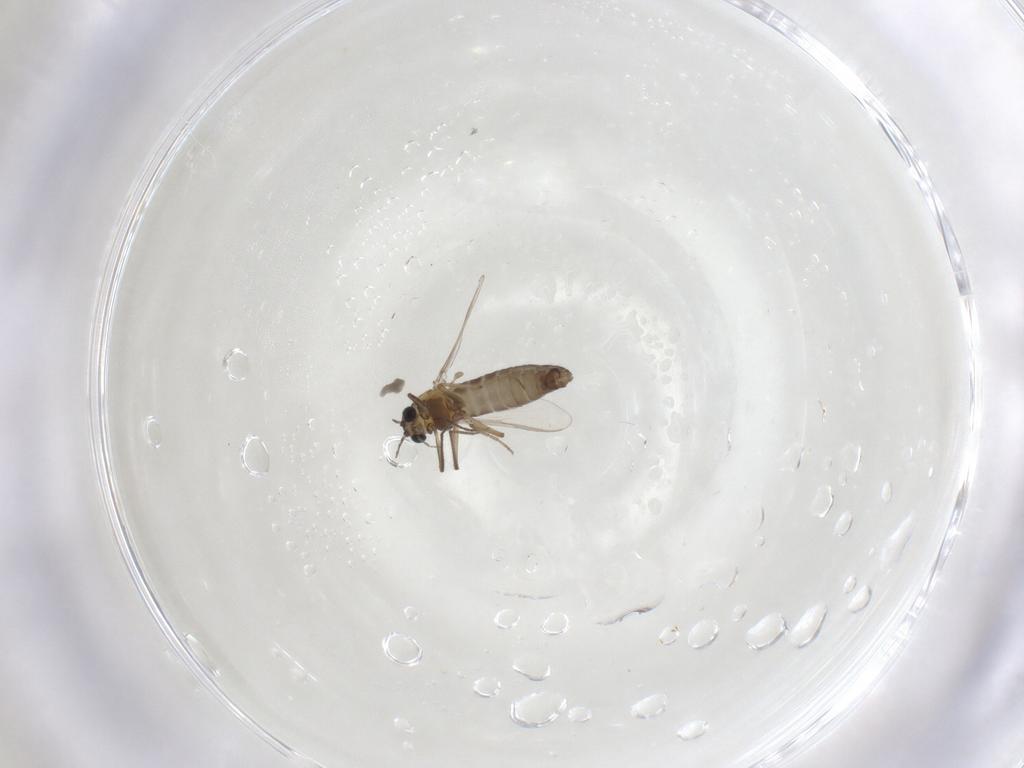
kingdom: Animalia
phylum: Arthropoda
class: Insecta
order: Diptera
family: Chironomidae
